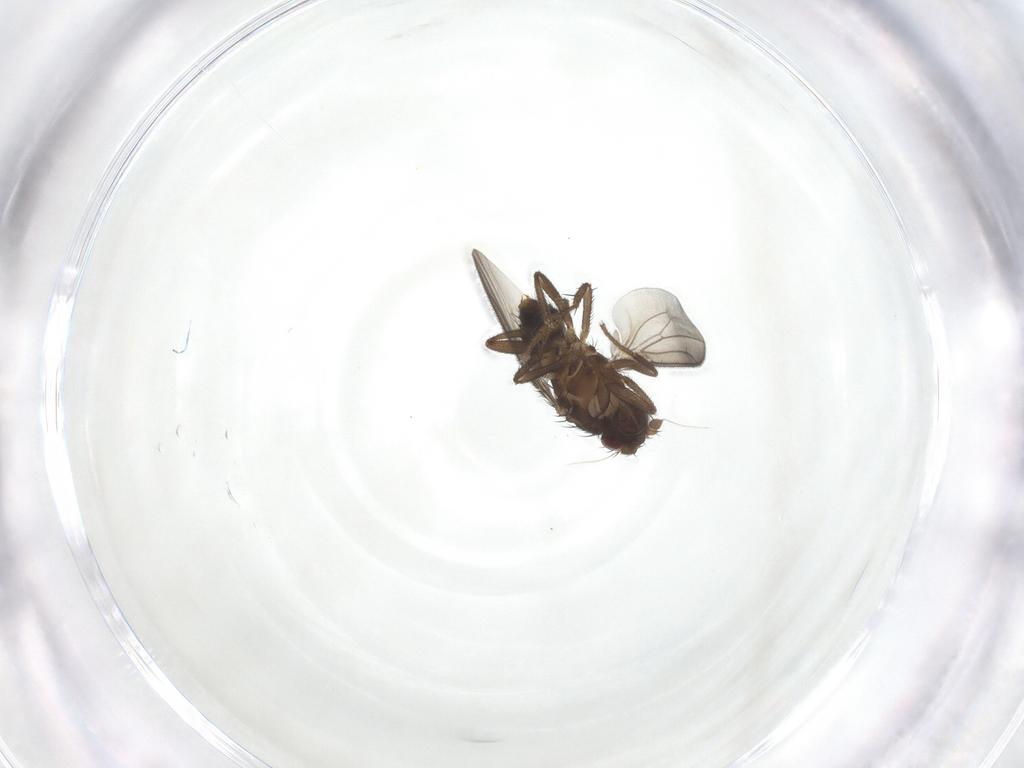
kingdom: Animalia
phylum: Arthropoda
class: Insecta
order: Diptera
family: Sphaeroceridae
